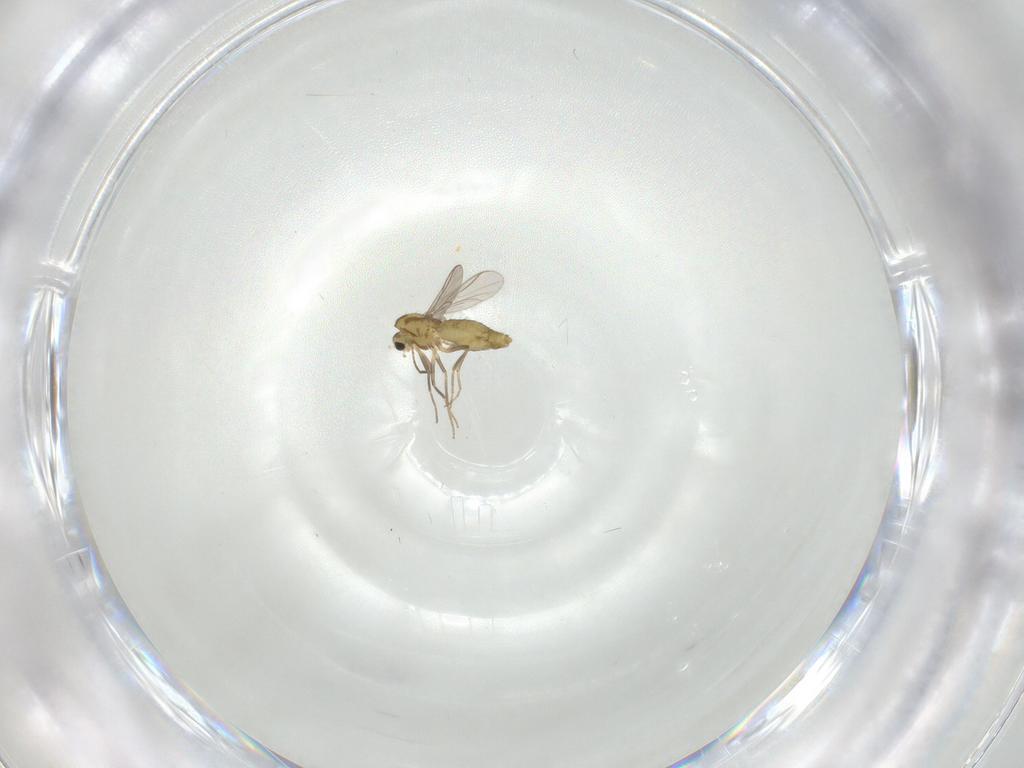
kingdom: Animalia
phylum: Arthropoda
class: Insecta
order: Diptera
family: Chironomidae
